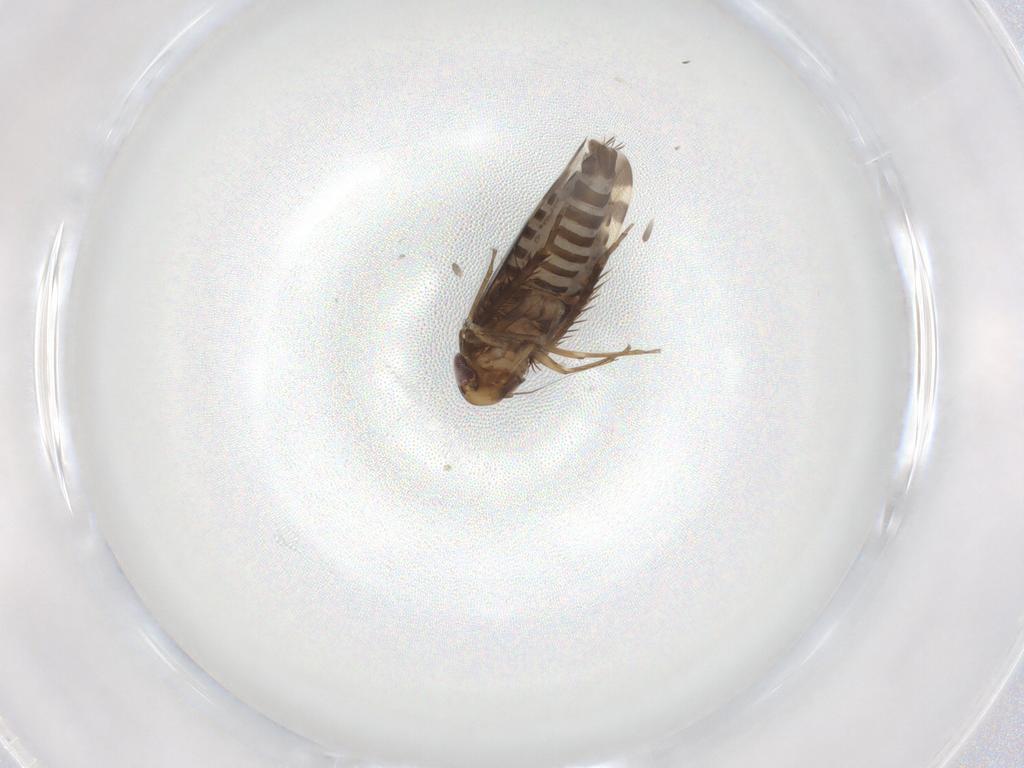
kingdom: Animalia
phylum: Arthropoda
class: Insecta
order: Hemiptera
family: Cicadellidae
